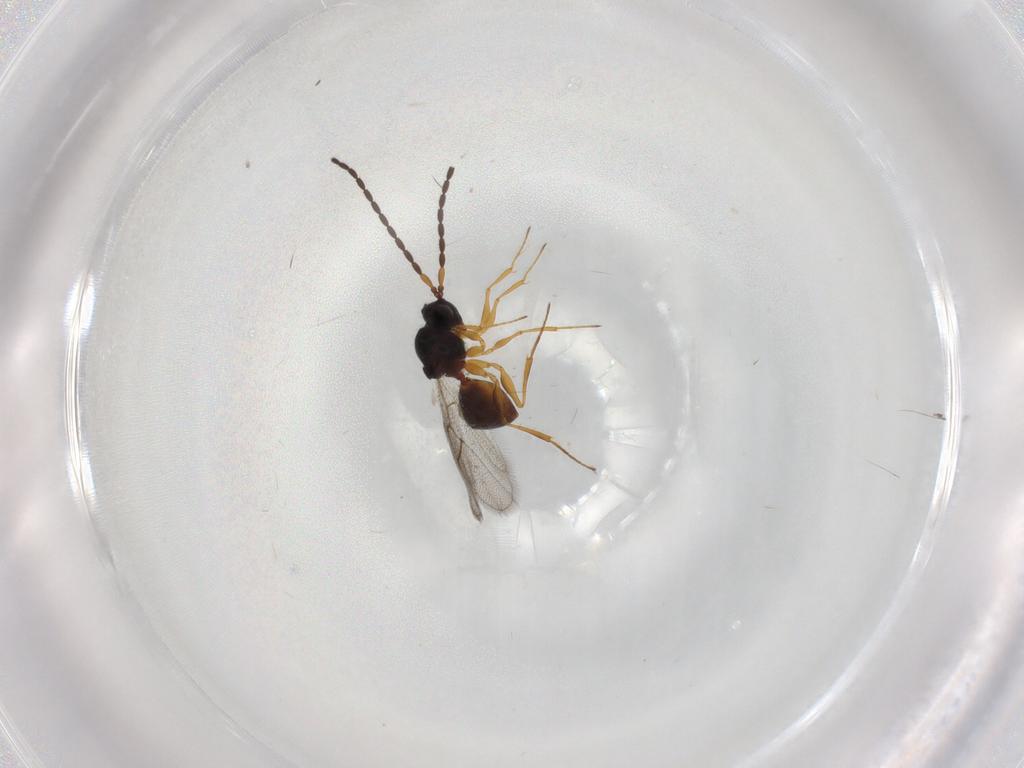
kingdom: Animalia
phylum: Arthropoda
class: Insecta
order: Hymenoptera
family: Figitidae
